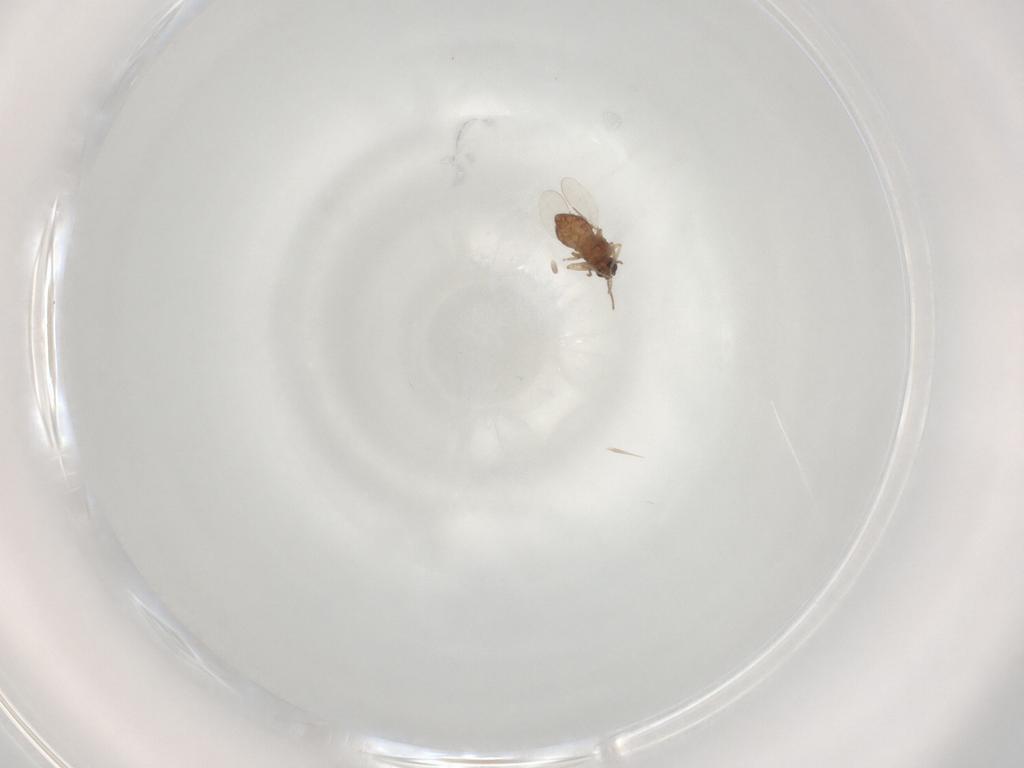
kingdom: Animalia
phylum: Arthropoda
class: Insecta
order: Diptera
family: Ceratopogonidae
